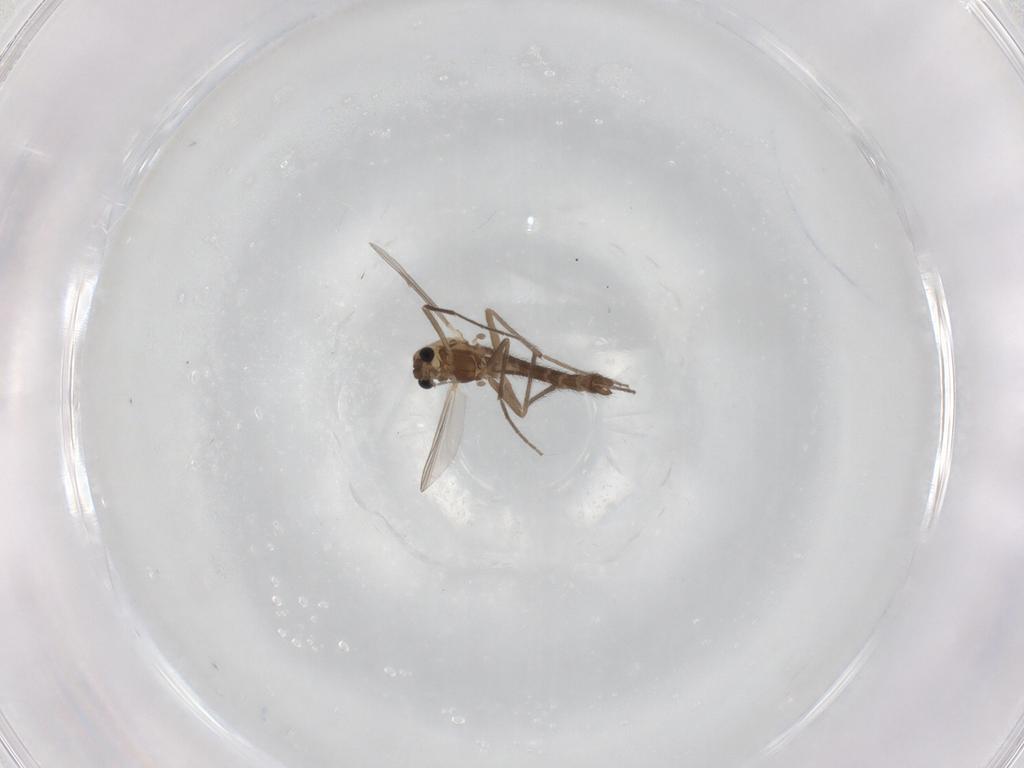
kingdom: Animalia
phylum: Arthropoda
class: Insecta
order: Diptera
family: Chironomidae
